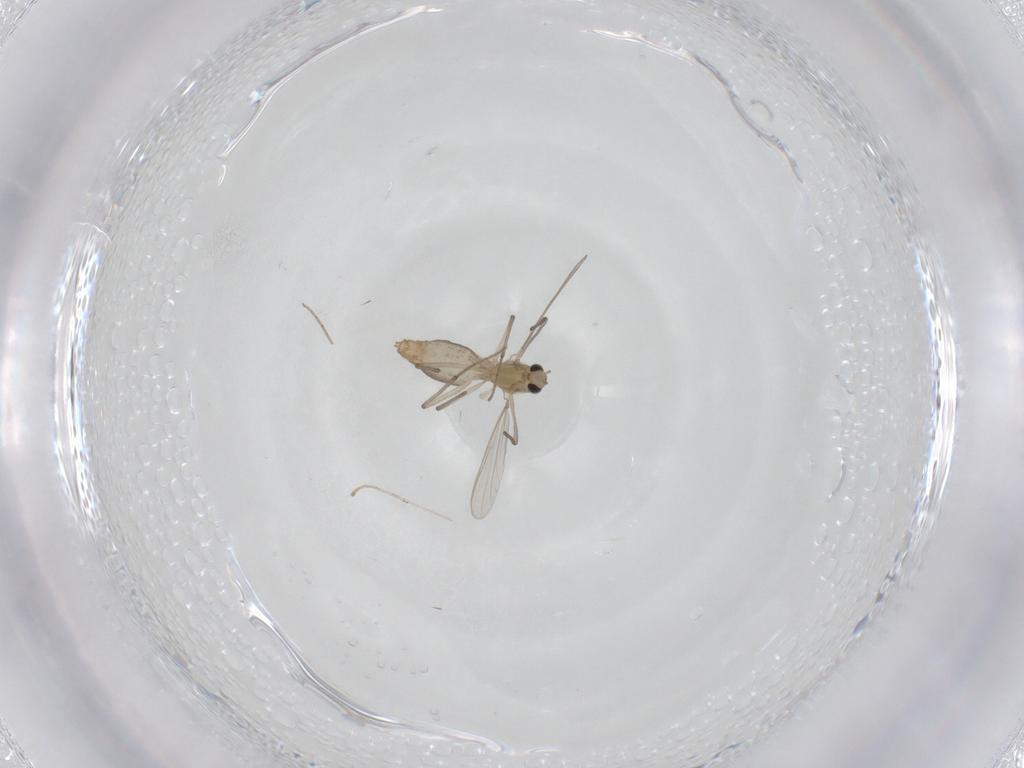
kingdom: Animalia
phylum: Arthropoda
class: Insecta
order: Diptera
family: Chironomidae
